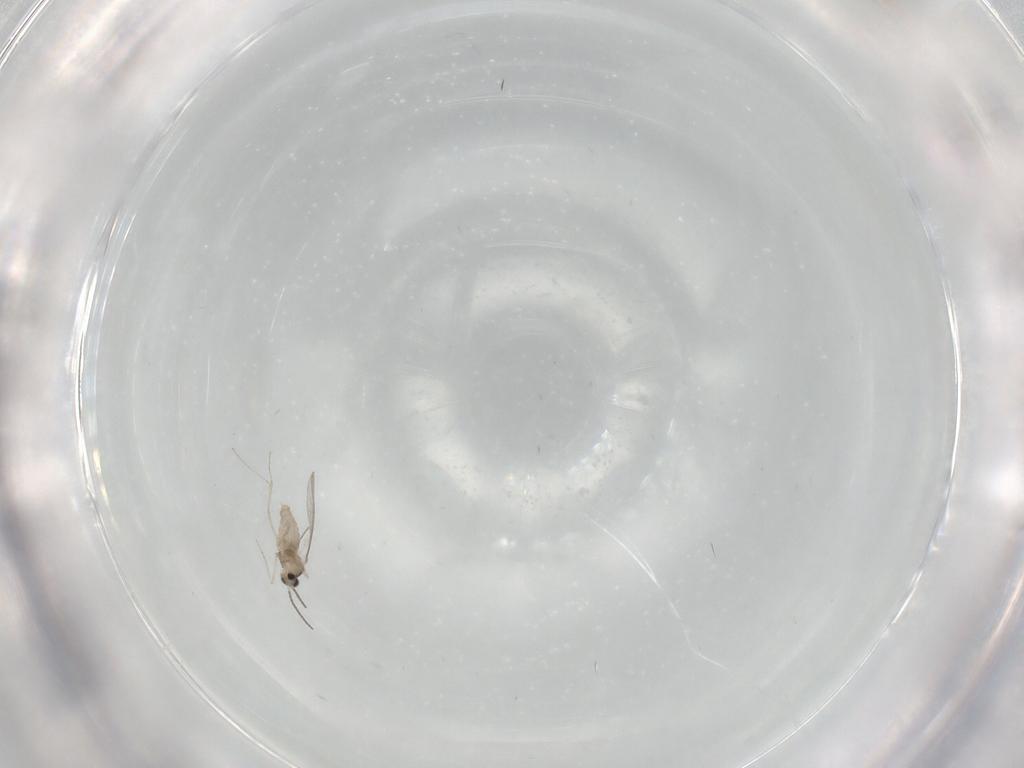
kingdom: Animalia
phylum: Arthropoda
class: Insecta
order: Diptera
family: Cecidomyiidae
